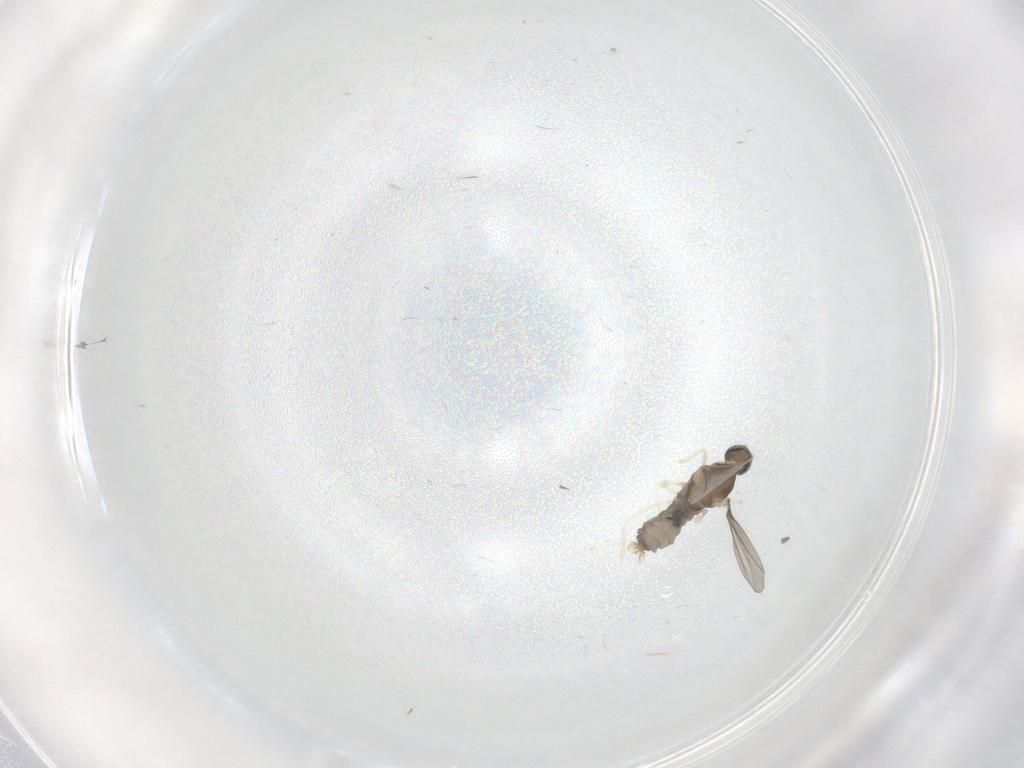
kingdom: Animalia
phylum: Arthropoda
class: Insecta
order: Diptera
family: Cecidomyiidae
